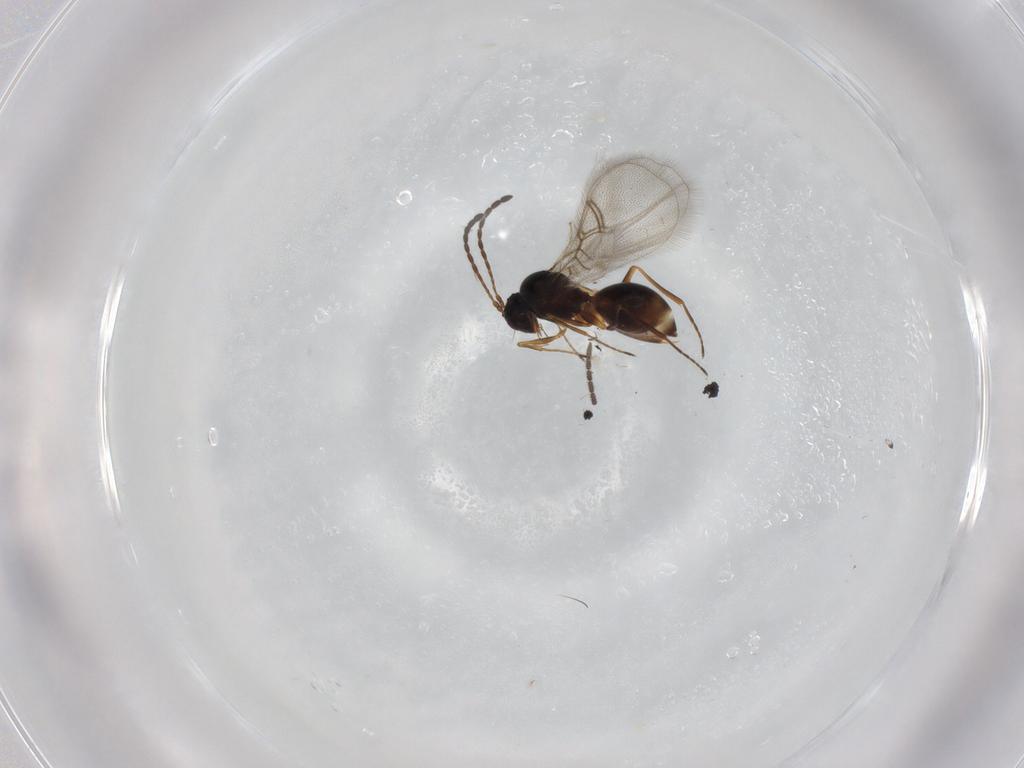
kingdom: Animalia
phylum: Arthropoda
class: Insecta
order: Hymenoptera
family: Figitidae
